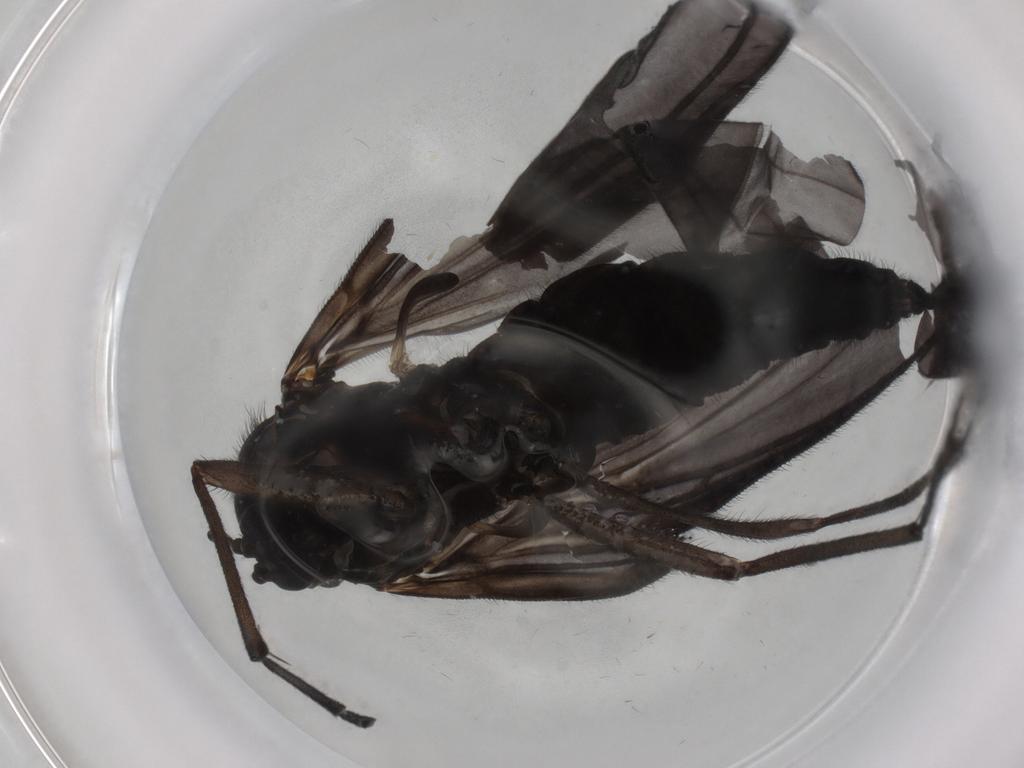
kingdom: Animalia
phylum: Arthropoda
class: Insecta
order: Diptera
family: Sciaridae
